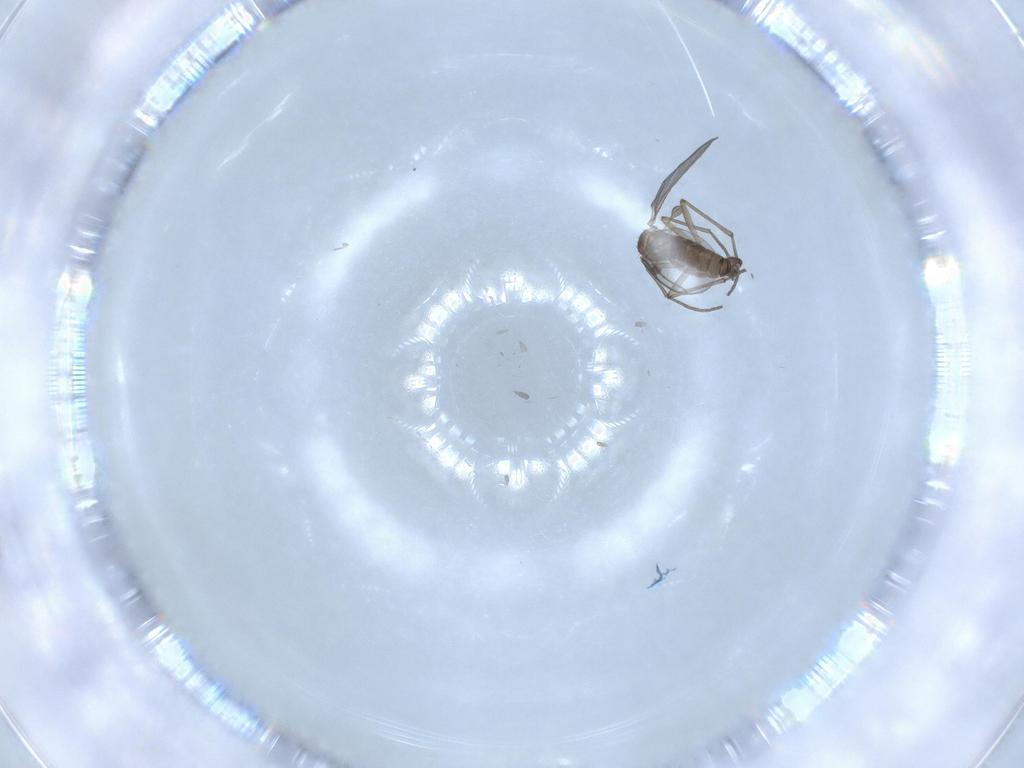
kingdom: Animalia
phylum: Arthropoda
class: Insecta
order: Diptera
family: Sciaridae
